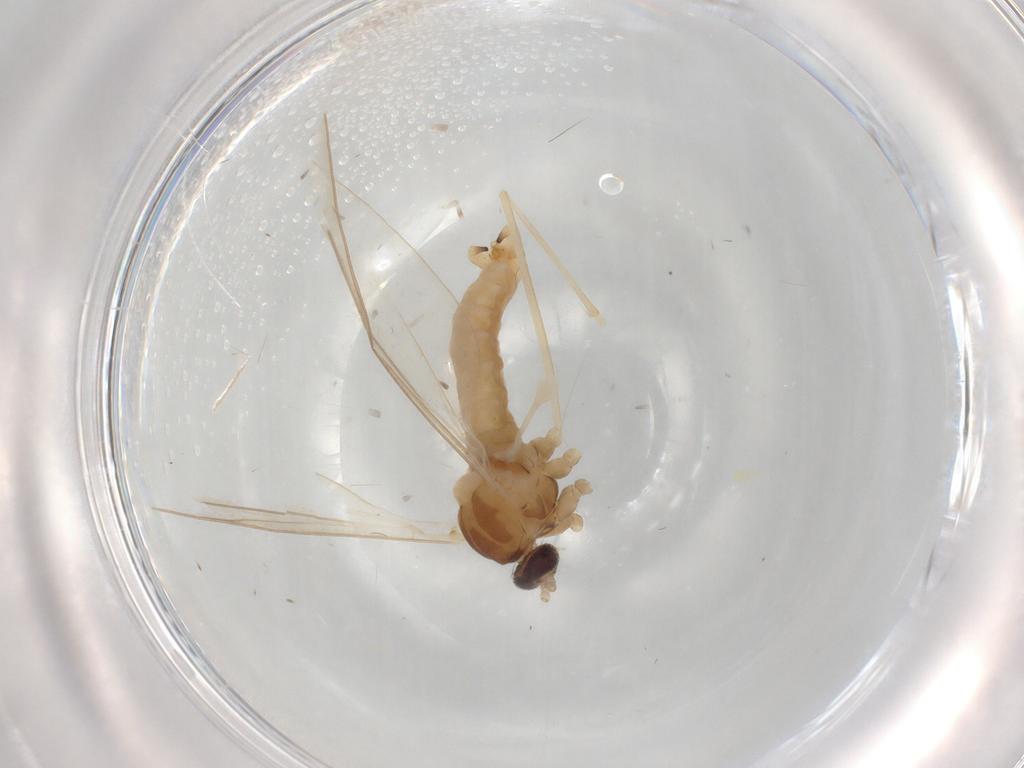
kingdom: Animalia
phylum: Arthropoda
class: Insecta
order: Diptera
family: Cecidomyiidae
